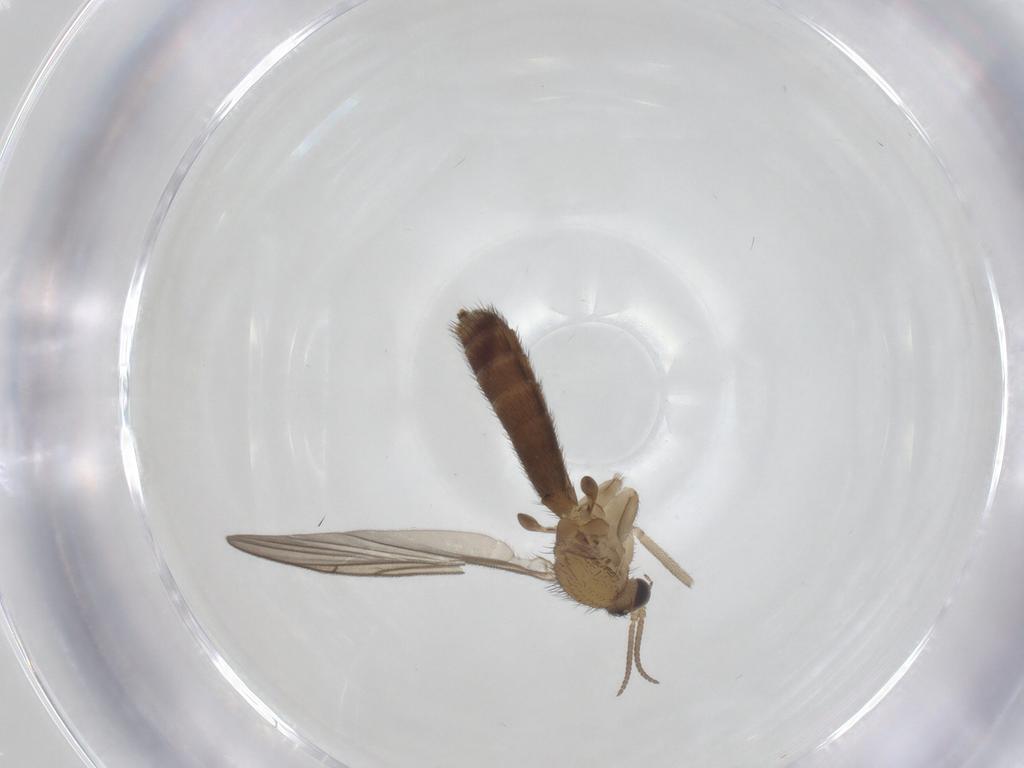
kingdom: Animalia
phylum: Arthropoda
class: Insecta
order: Diptera
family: Keroplatidae
